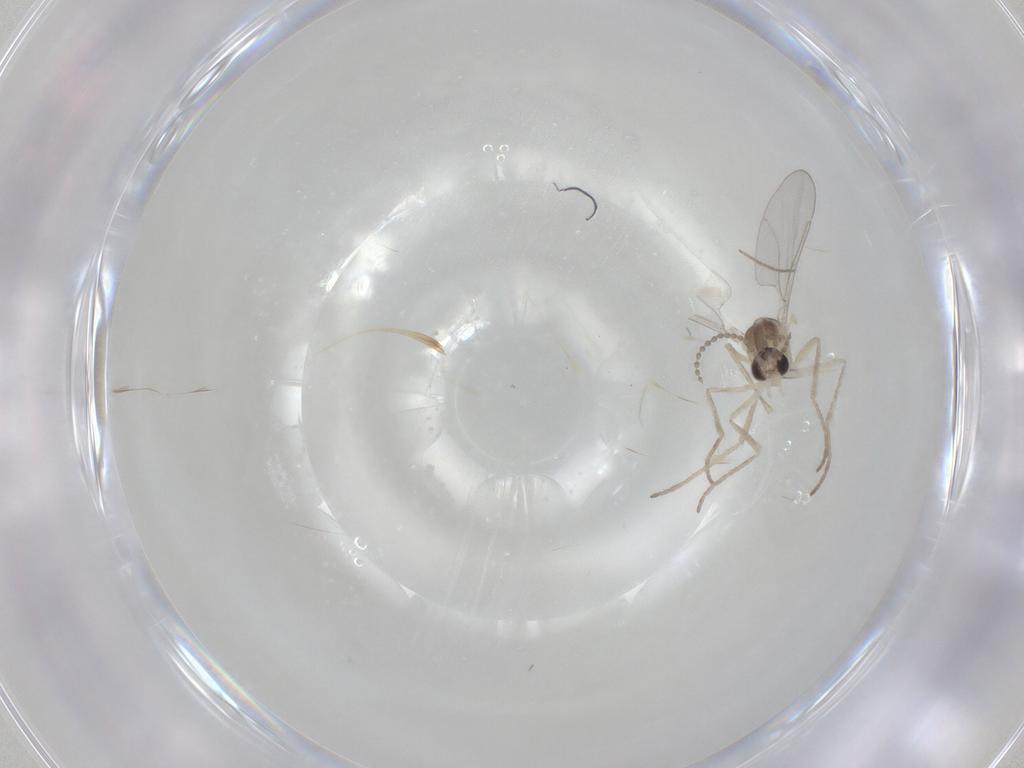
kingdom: Animalia
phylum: Arthropoda
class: Insecta
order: Diptera
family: Cecidomyiidae
